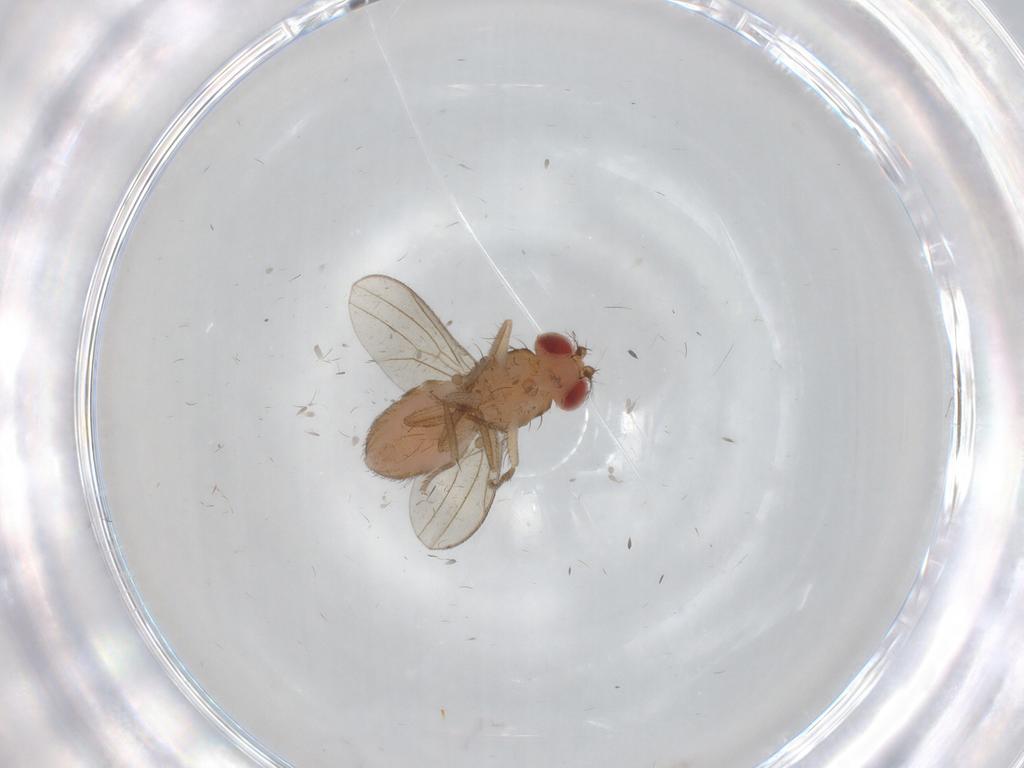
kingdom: Animalia
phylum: Arthropoda
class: Insecta
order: Diptera
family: Drosophilidae
